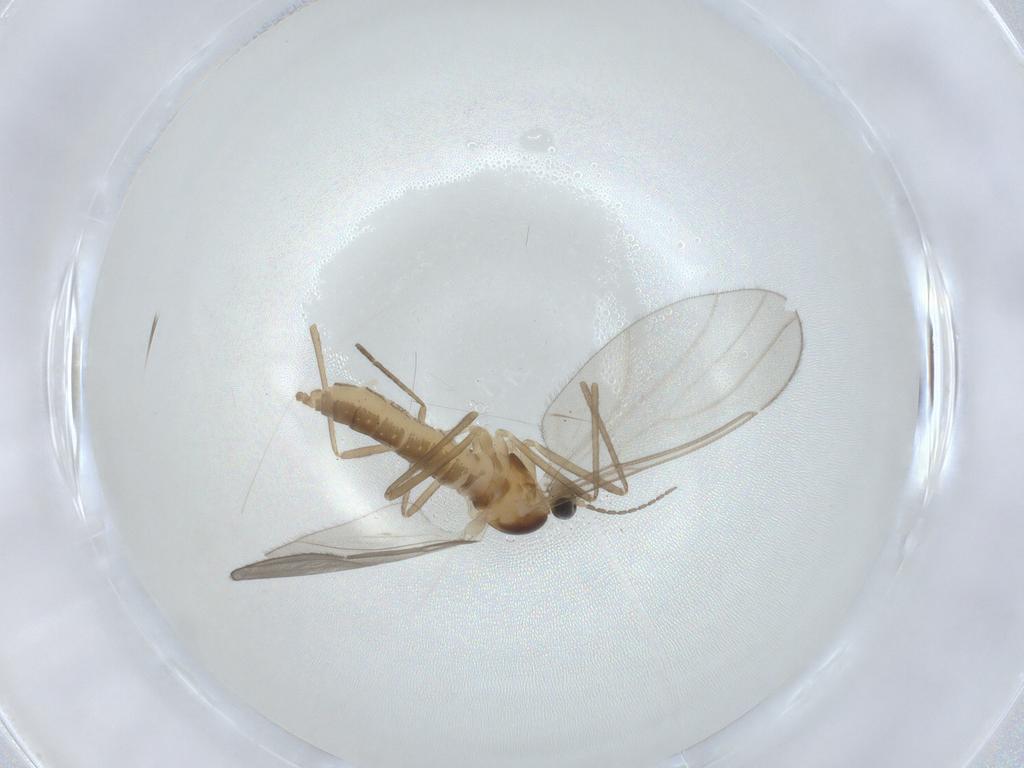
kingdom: Animalia
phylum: Arthropoda
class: Insecta
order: Diptera
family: Cecidomyiidae
